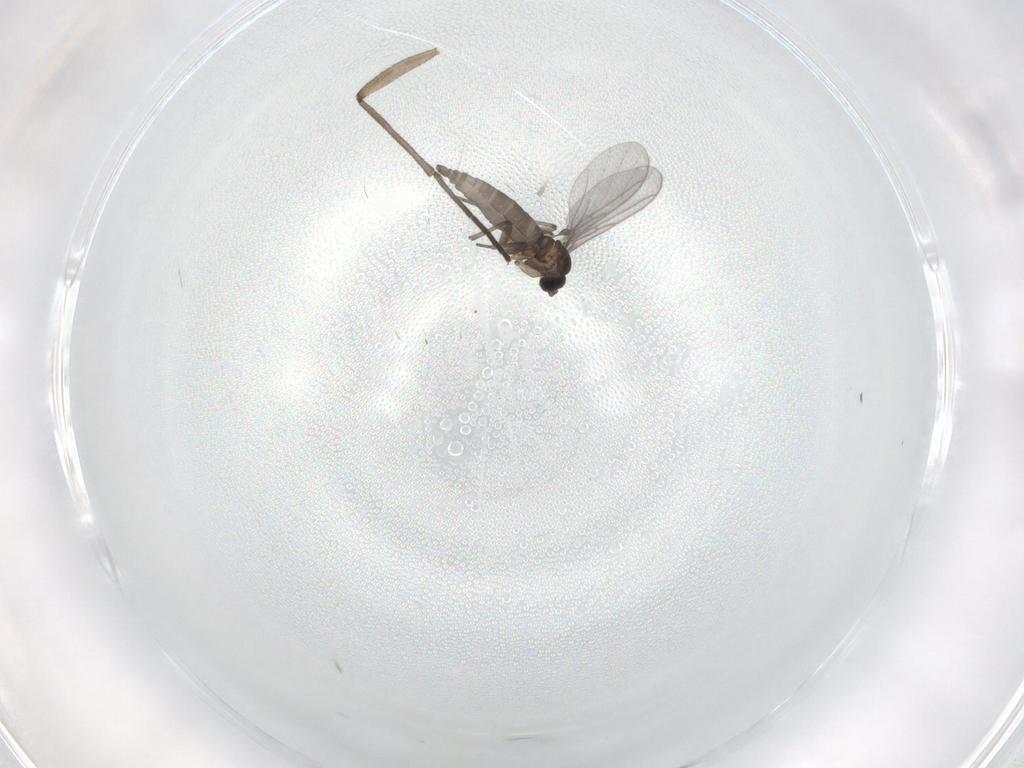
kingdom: Animalia
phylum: Arthropoda
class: Insecta
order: Diptera
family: Sciaridae
